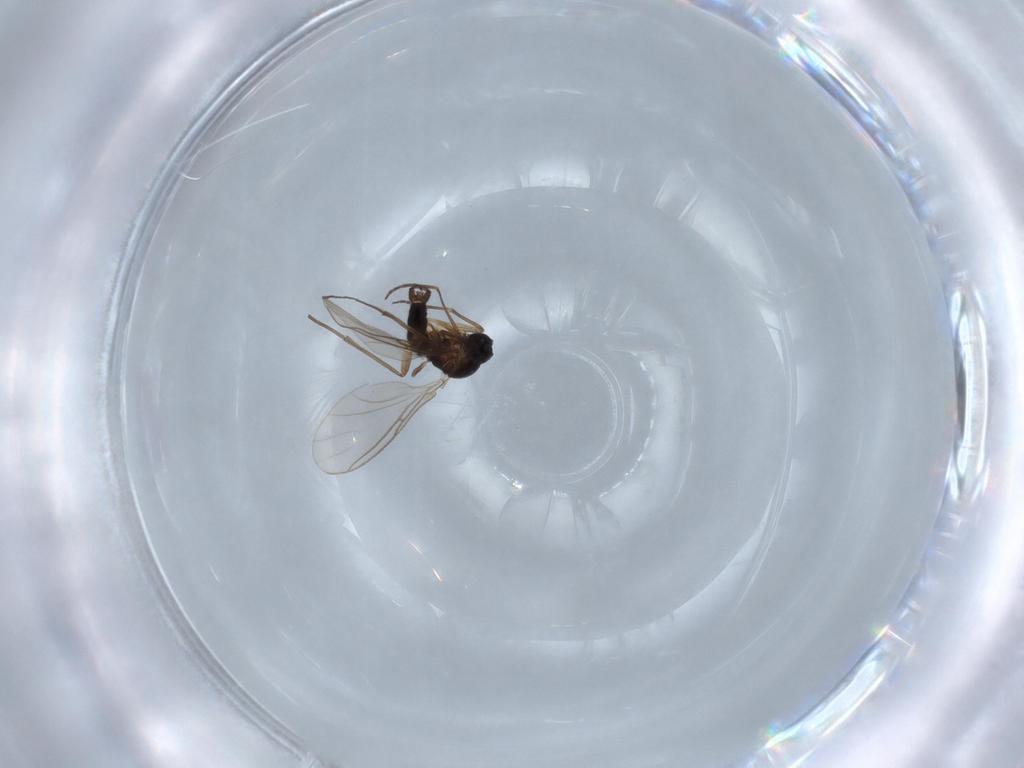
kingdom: Animalia
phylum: Arthropoda
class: Insecta
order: Diptera
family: Sciaridae
